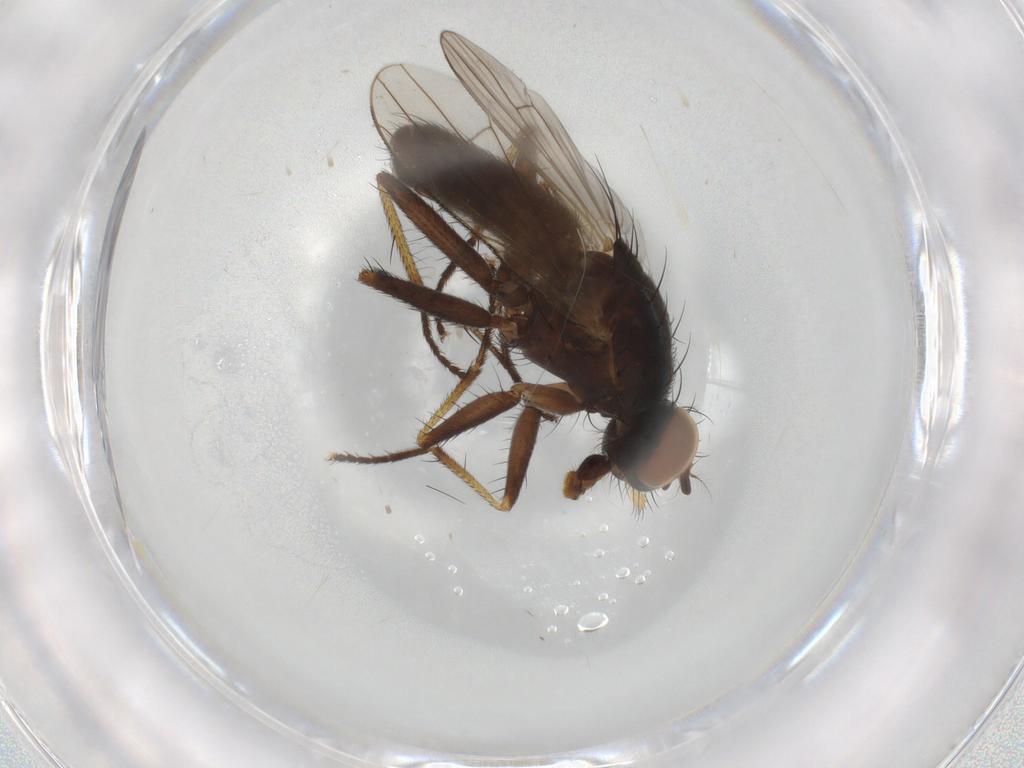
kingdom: Animalia
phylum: Arthropoda
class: Insecta
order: Diptera
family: Muscidae
